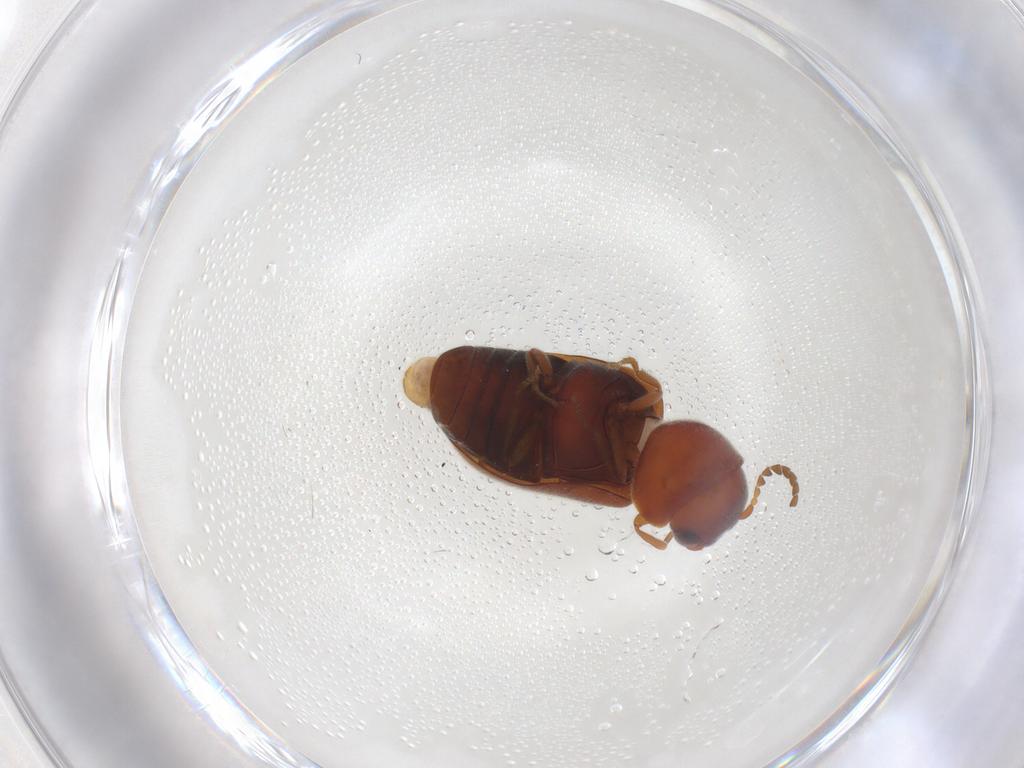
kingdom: Animalia
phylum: Arthropoda
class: Insecta
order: Coleoptera
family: Ptinidae
